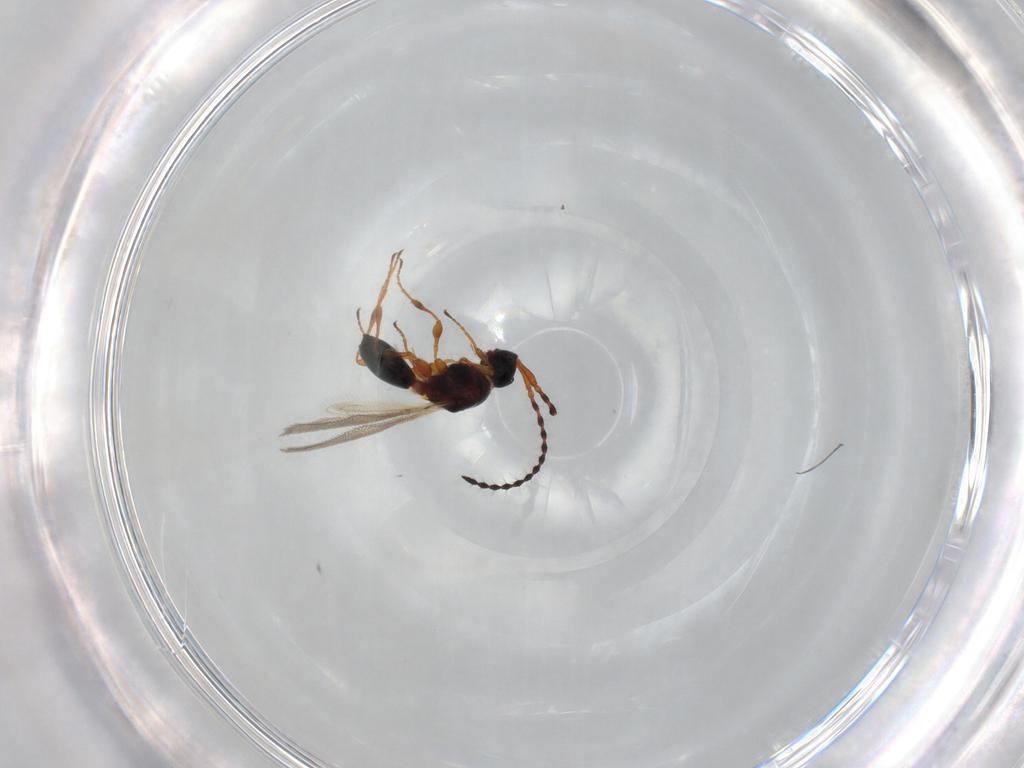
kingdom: Animalia
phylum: Arthropoda
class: Insecta
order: Hymenoptera
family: Diapriidae
